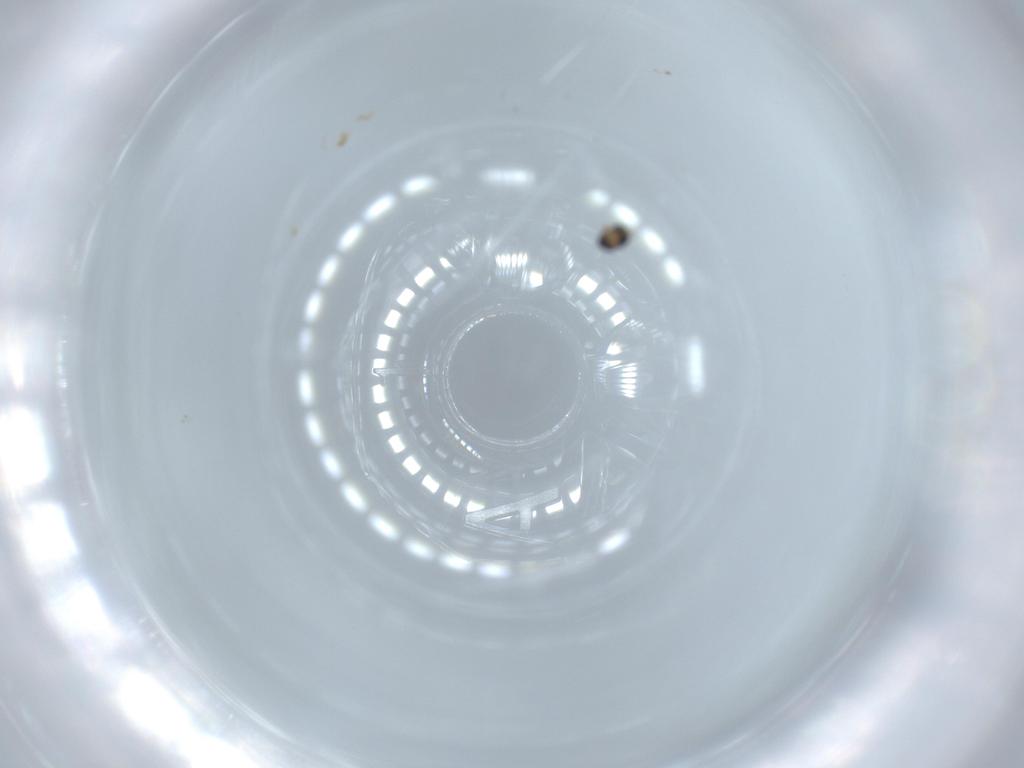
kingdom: Animalia
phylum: Arthropoda
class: Insecta
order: Diptera
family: Cecidomyiidae
